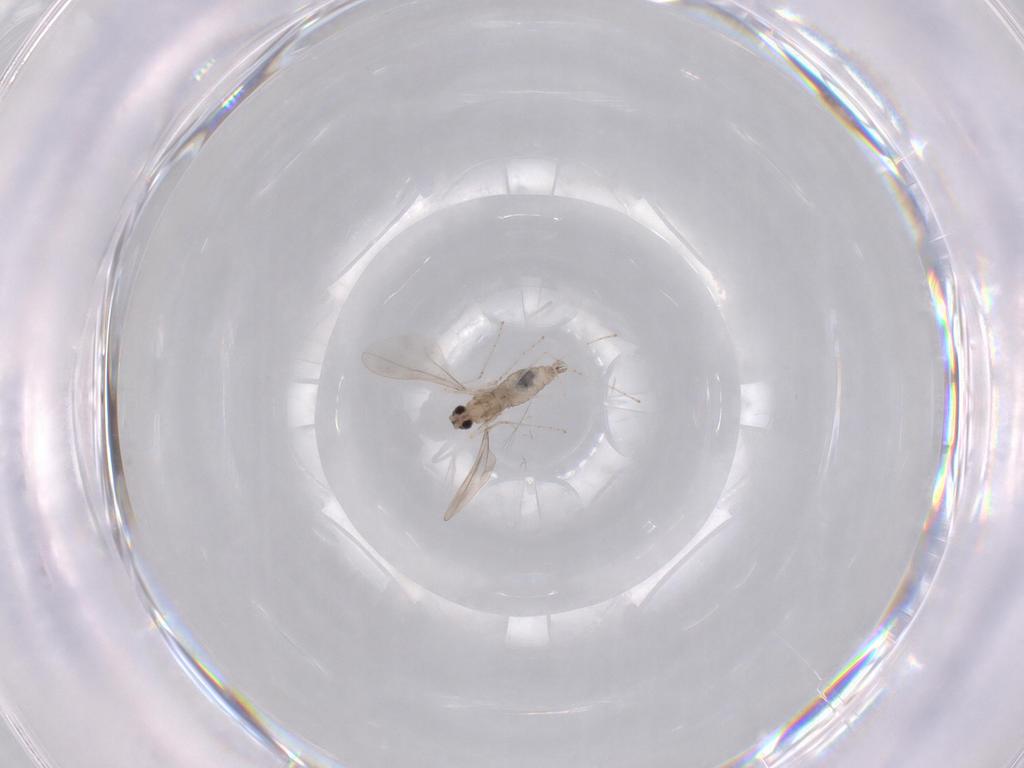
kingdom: Animalia
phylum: Arthropoda
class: Insecta
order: Diptera
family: Cecidomyiidae
